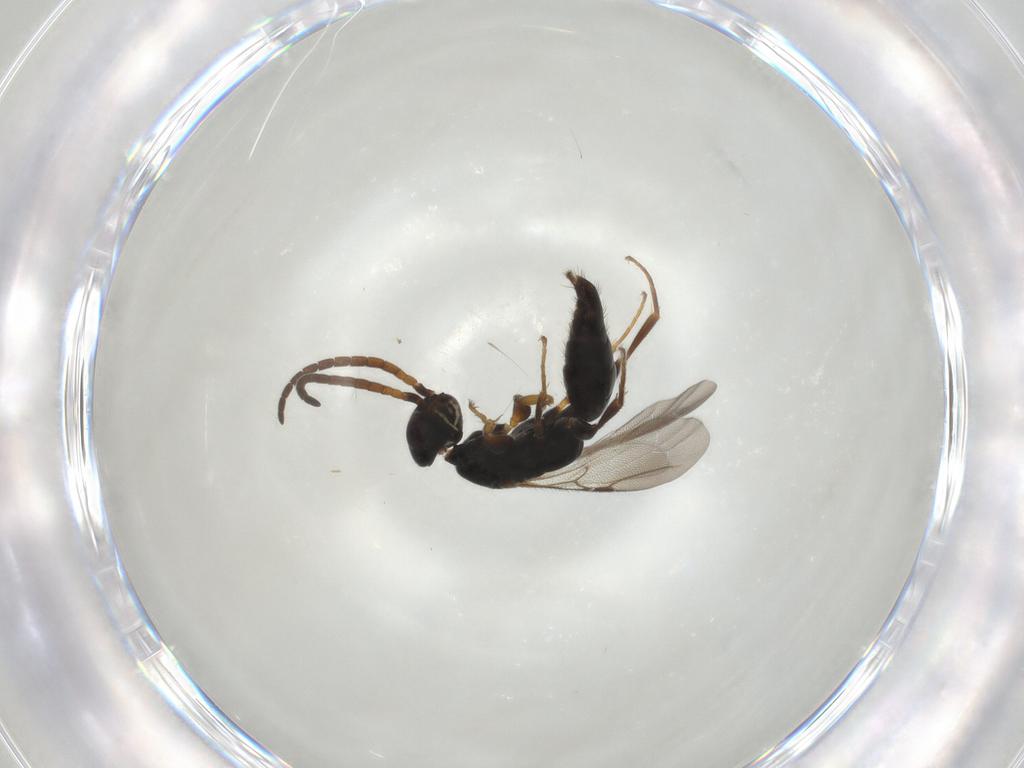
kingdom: Animalia
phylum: Arthropoda
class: Insecta
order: Hymenoptera
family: Bethylidae
